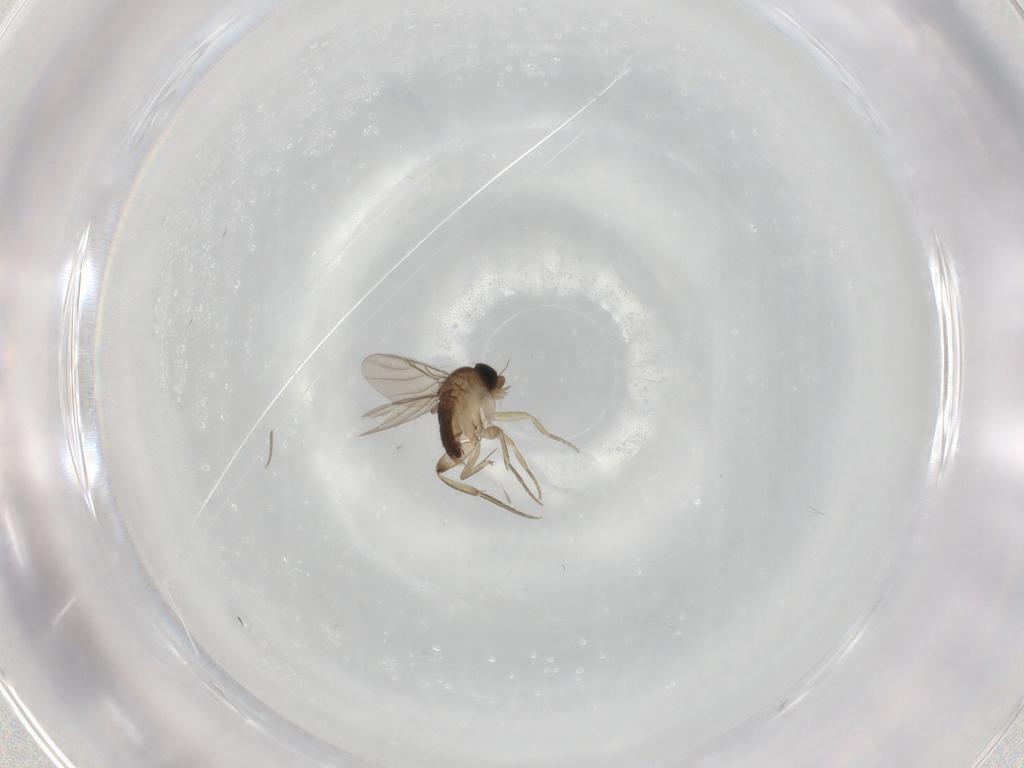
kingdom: Animalia
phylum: Arthropoda
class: Insecta
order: Diptera
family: Phoridae
